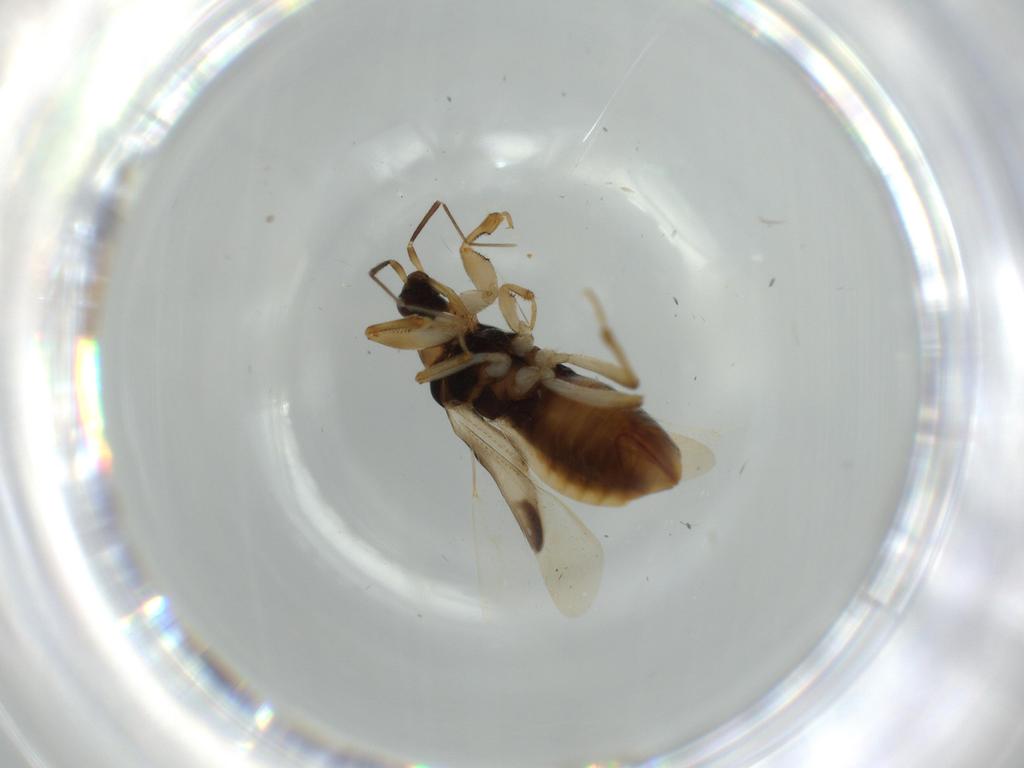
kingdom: Animalia
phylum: Arthropoda
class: Insecta
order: Hemiptera
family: Nabidae
